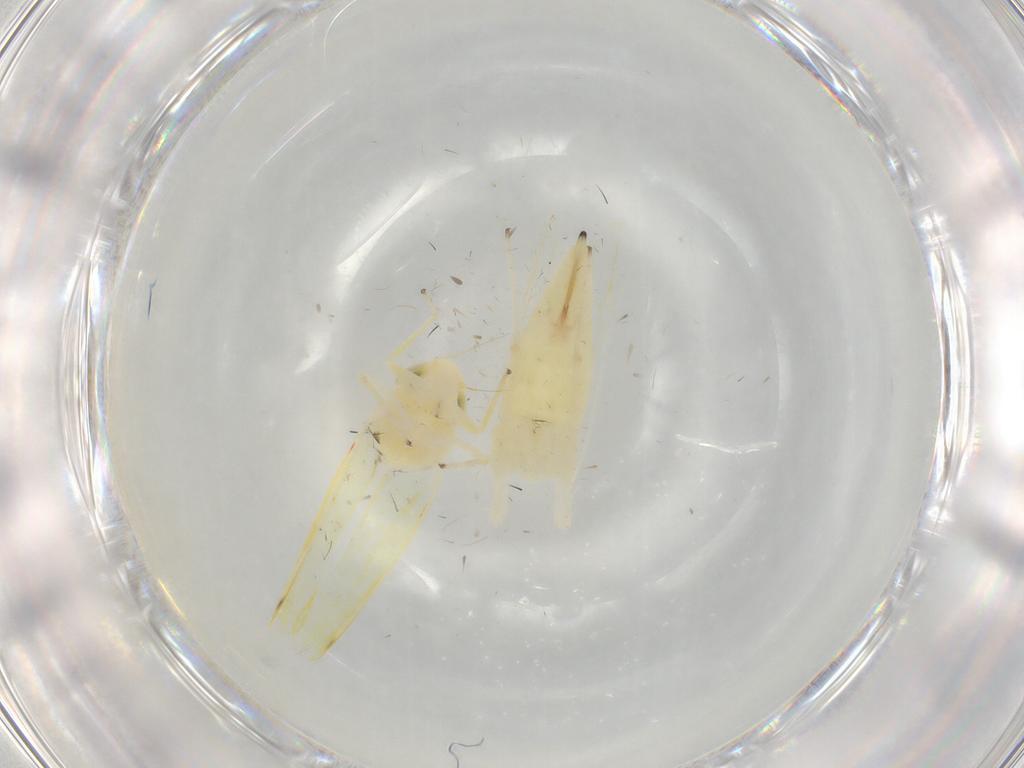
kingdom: Animalia
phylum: Arthropoda
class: Insecta
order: Hemiptera
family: Cicadellidae
